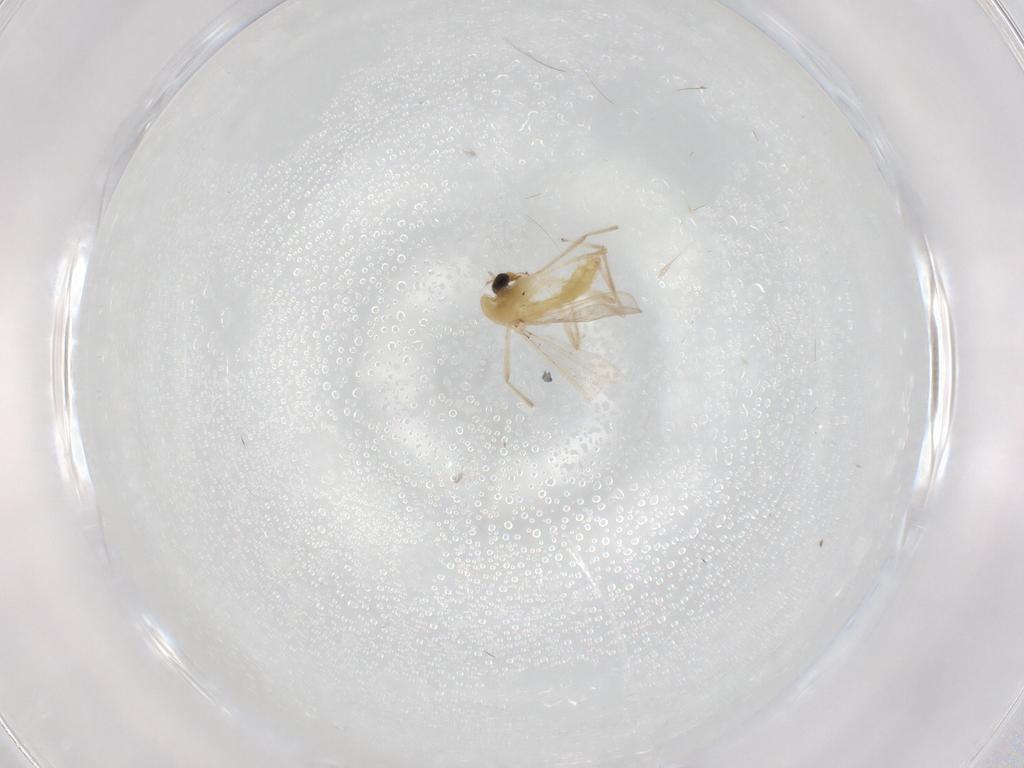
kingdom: Animalia
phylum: Arthropoda
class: Insecta
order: Diptera
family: Chironomidae
